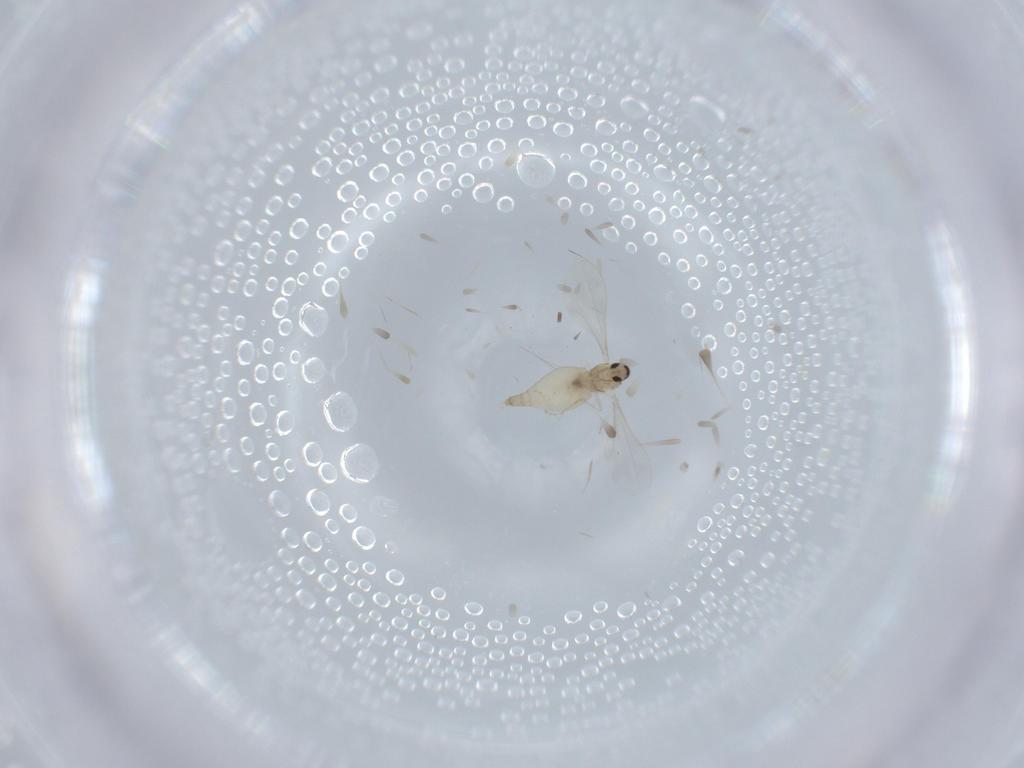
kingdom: Animalia
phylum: Arthropoda
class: Insecta
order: Diptera
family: Cecidomyiidae
